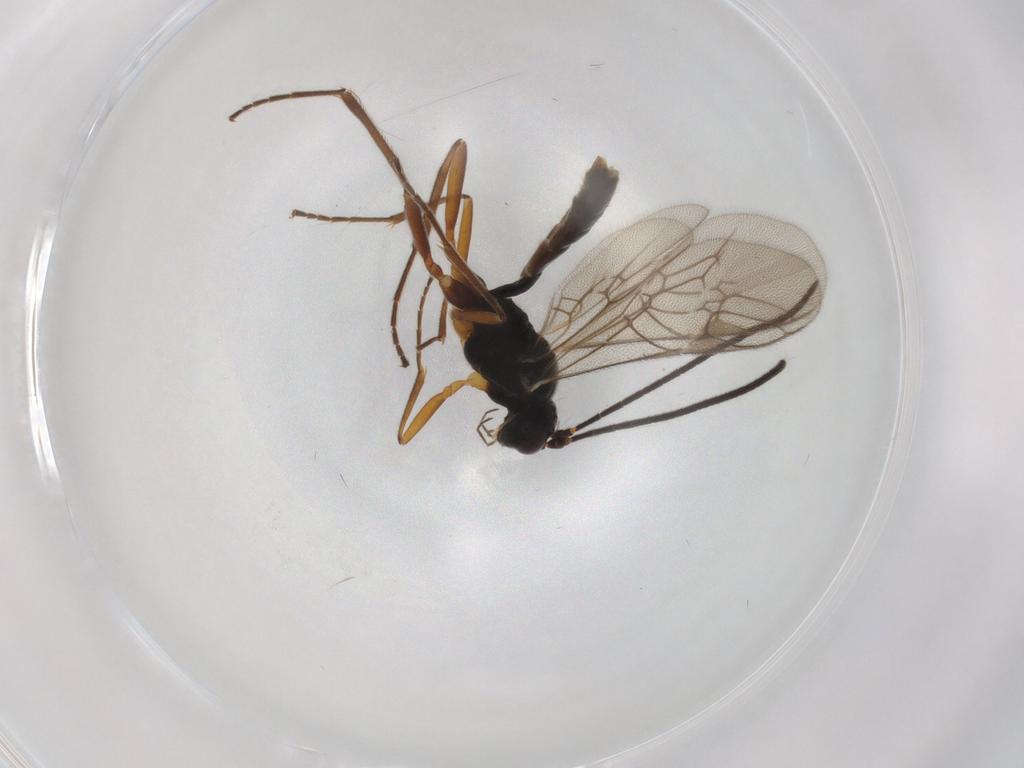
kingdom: Animalia
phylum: Arthropoda
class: Insecta
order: Hymenoptera
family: Ichneumonidae
